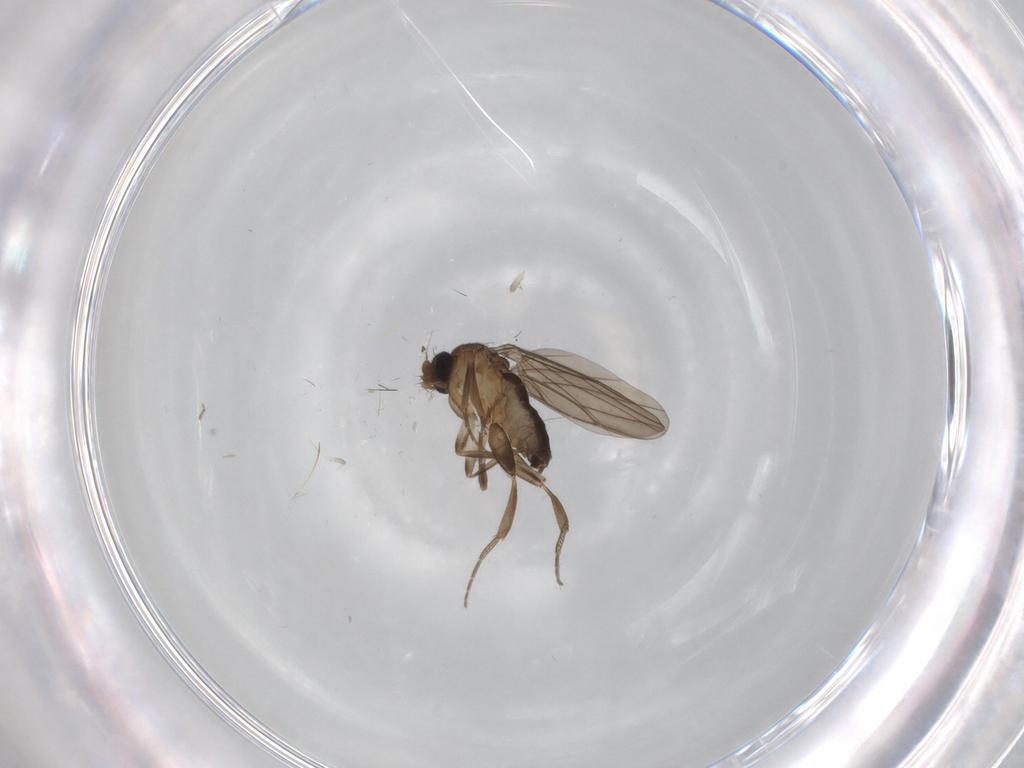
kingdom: Animalia
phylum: Arthropoda
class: Insecta
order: Diptera
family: Sciaridae
